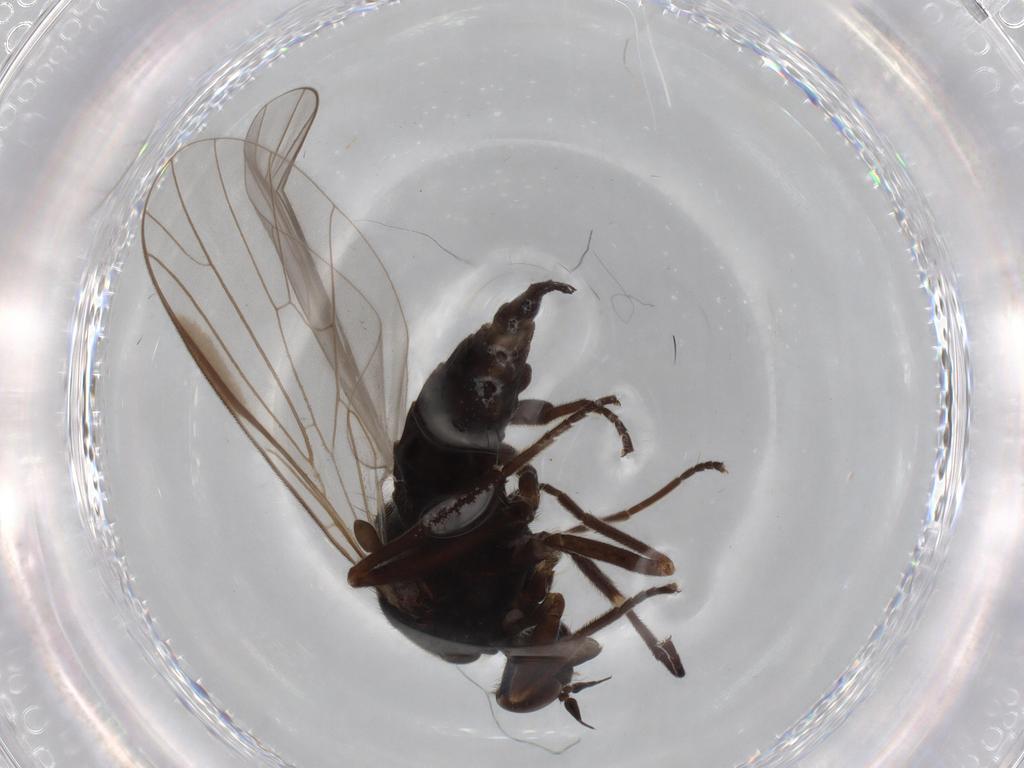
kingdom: Animalia
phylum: Arthropoda
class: Insecta
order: Diptera
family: Empididae
